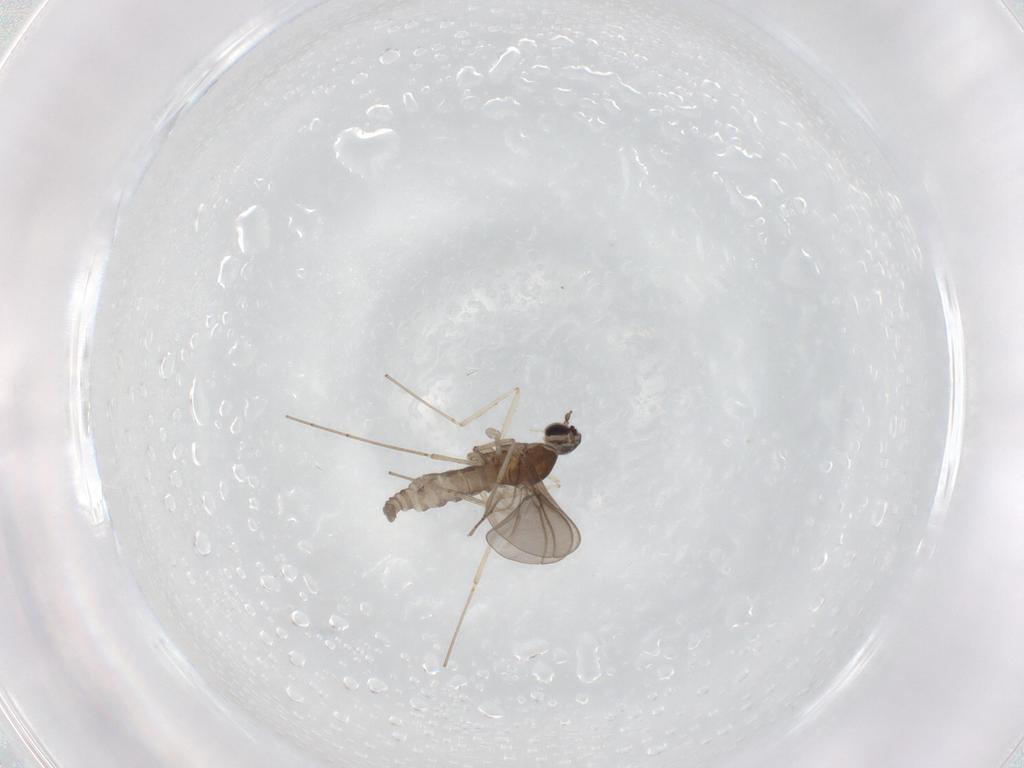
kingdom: Animalia
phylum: Arthropoda
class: Insecta
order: Diptera
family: Cecidomyiidae
